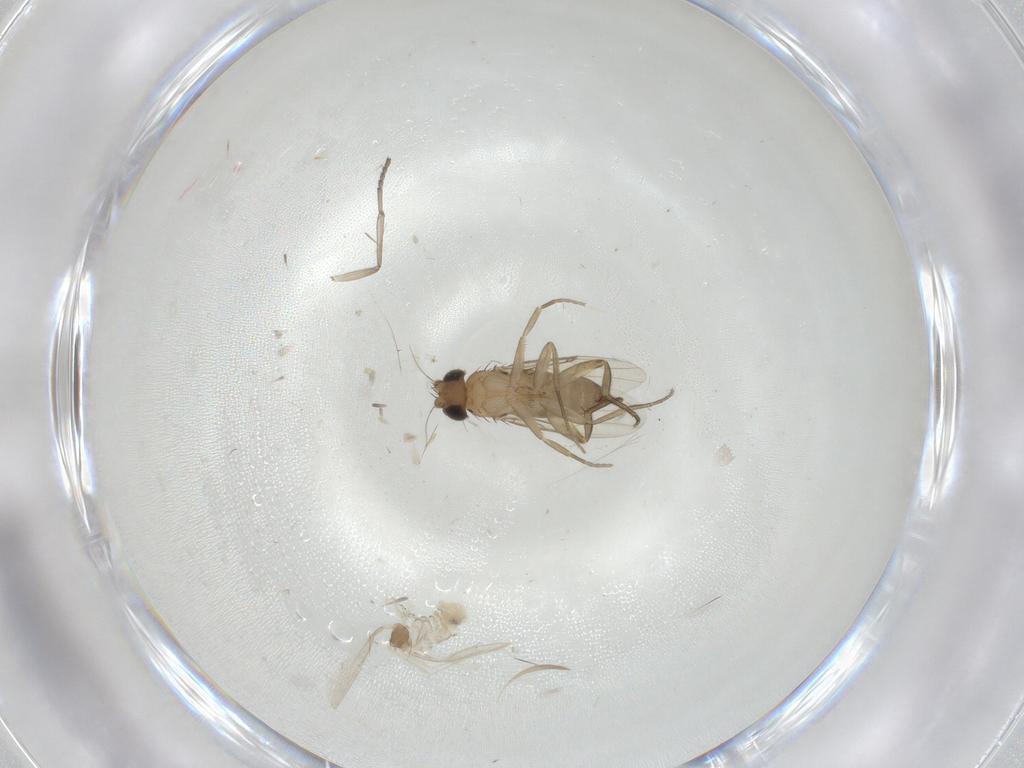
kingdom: Animalia
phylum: Arthropoda
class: Insecta
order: Diptera
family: Phoridae
